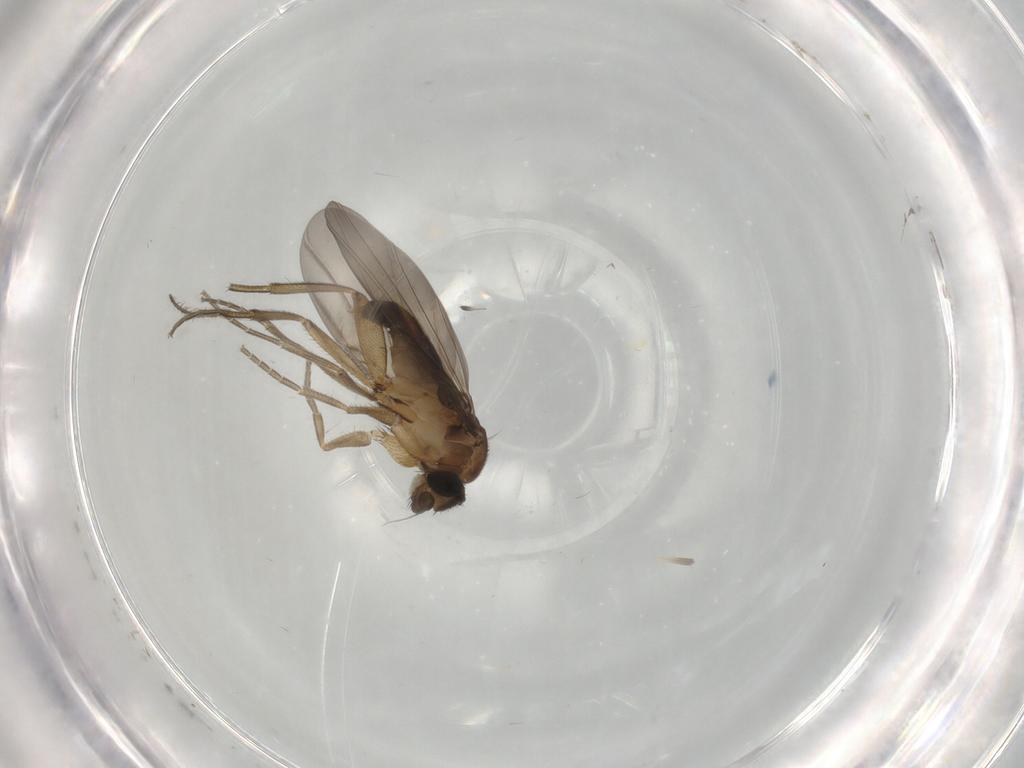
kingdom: Animalia
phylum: Arthropoda
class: Insecta
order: Diptera
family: Phoridae
